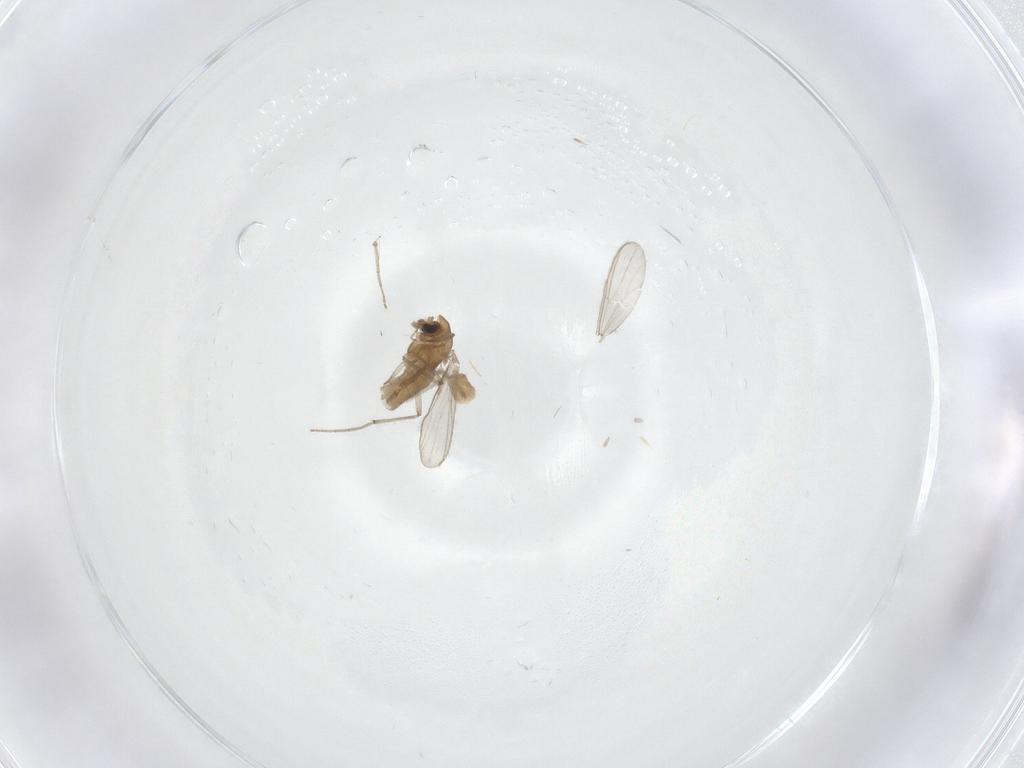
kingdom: Animalia
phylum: Arthropoda
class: Insecta
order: Diptera
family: Chironomidae
